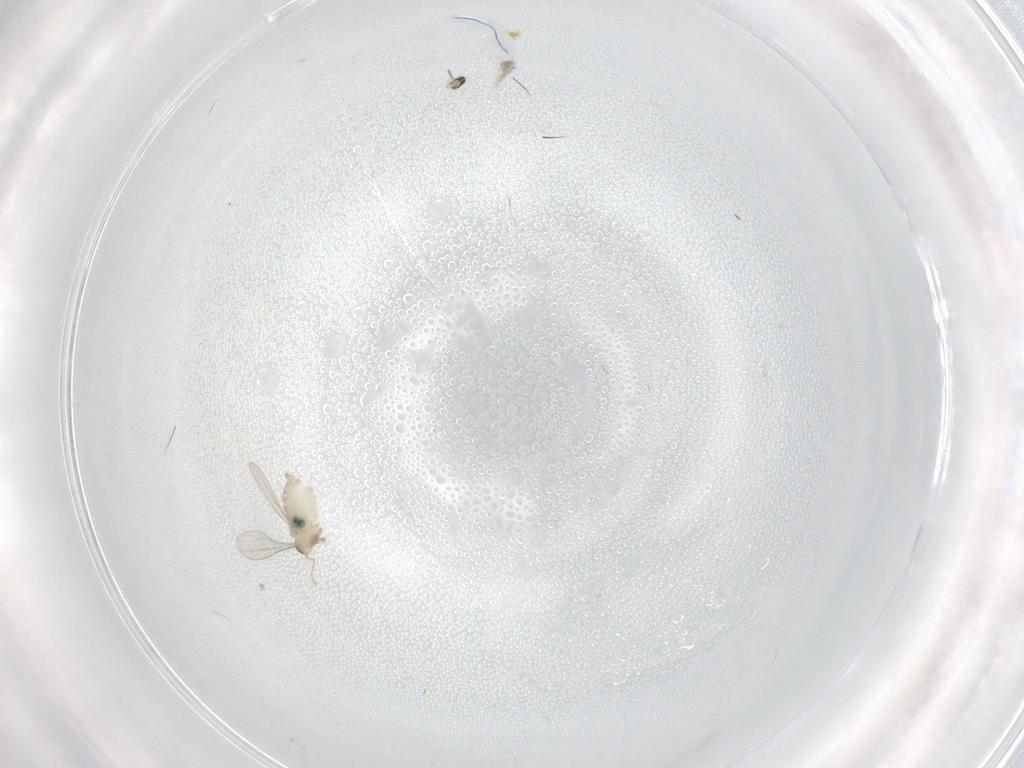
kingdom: Animalia
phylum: Arthropoda
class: Insecta
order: Diptera
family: Cecidomyiidae
